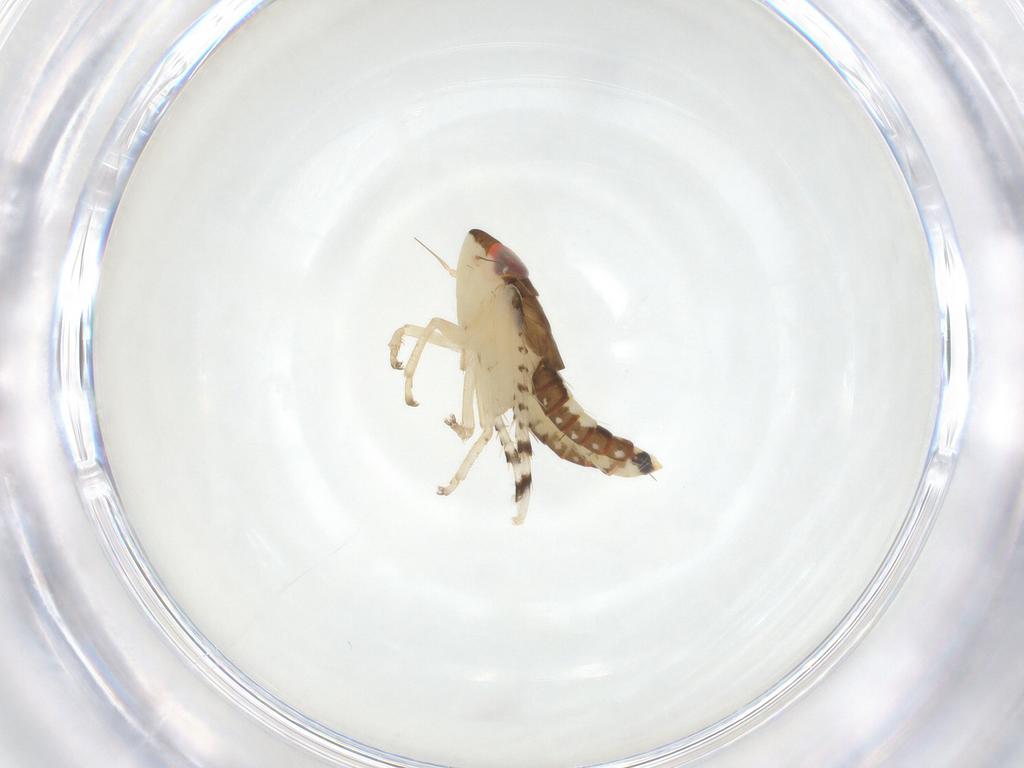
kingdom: Animalia
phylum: Arthropoda
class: Insecta
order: Hemiptera
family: Cicadellidae
